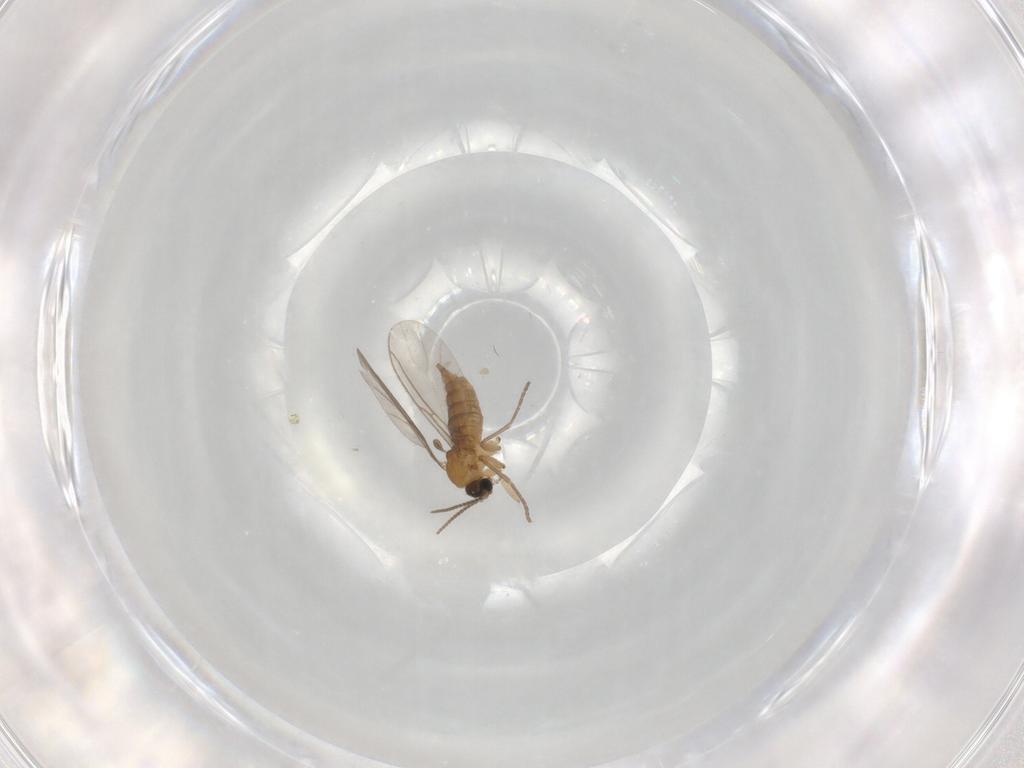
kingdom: Animalia
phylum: Arthropoda
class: Insecta
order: Diptera
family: Sciaridae
